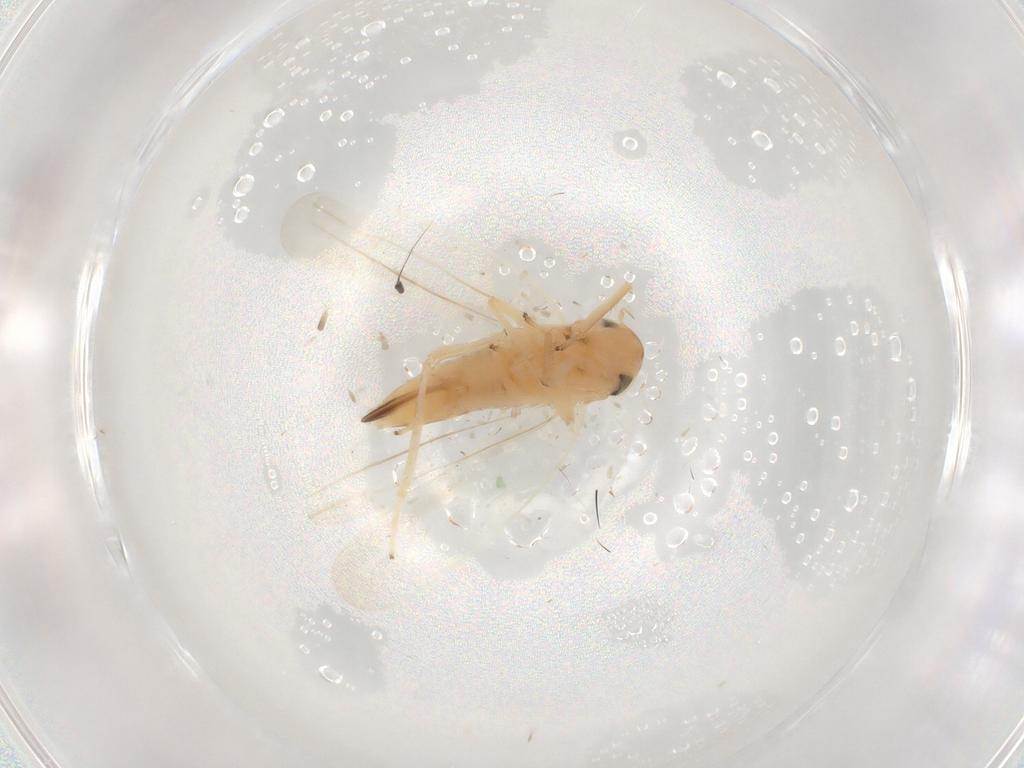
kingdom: Animalia
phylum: Arthropoda
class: Insecta
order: Hemiptera
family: Cicadellidae
